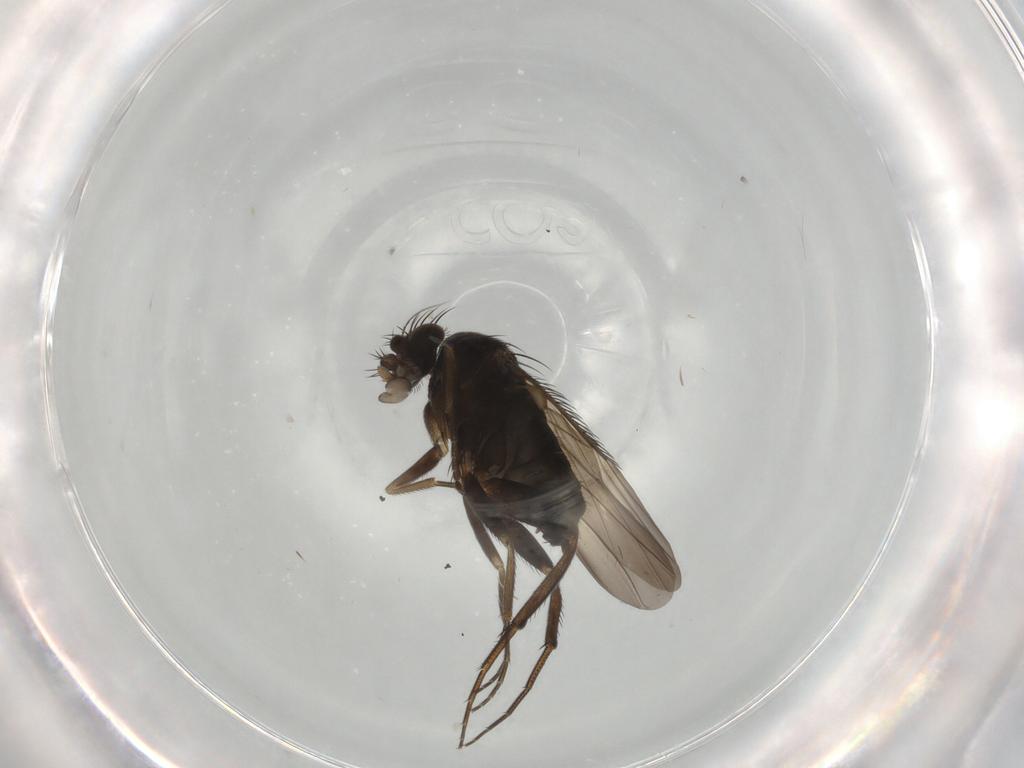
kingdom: Animalia
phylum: Arthropoda
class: Insecta
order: Diptera
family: Phoridae
